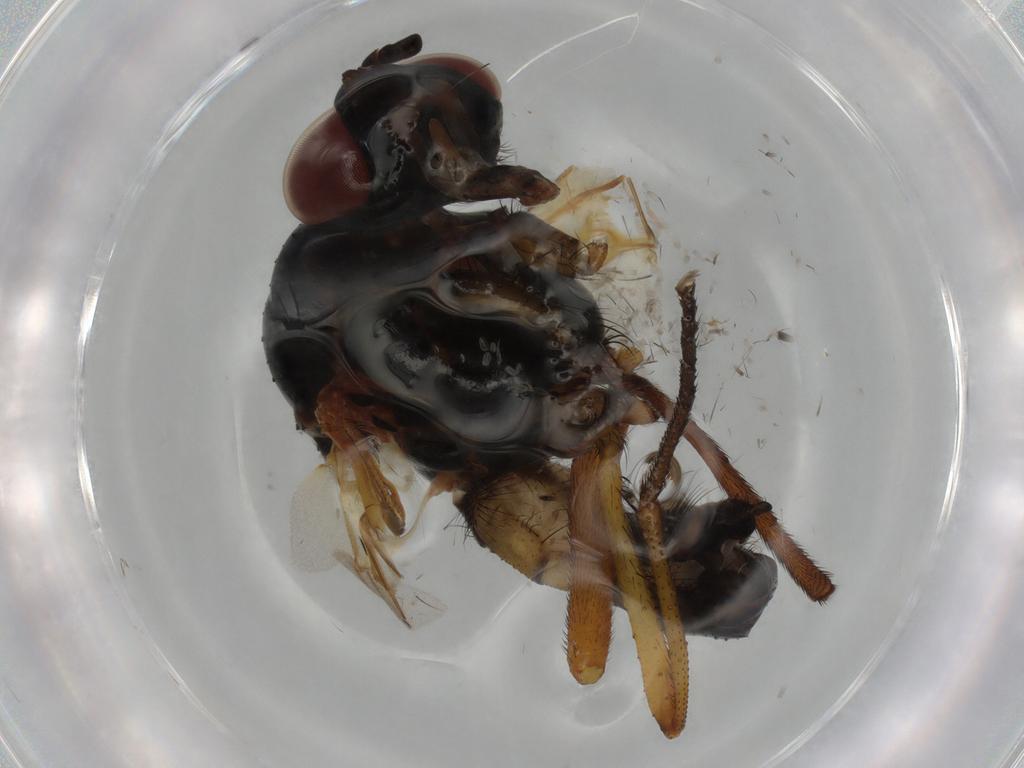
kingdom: Animalia
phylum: Arthropoda
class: Insecta
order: Diptera
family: Anthomyiidae
